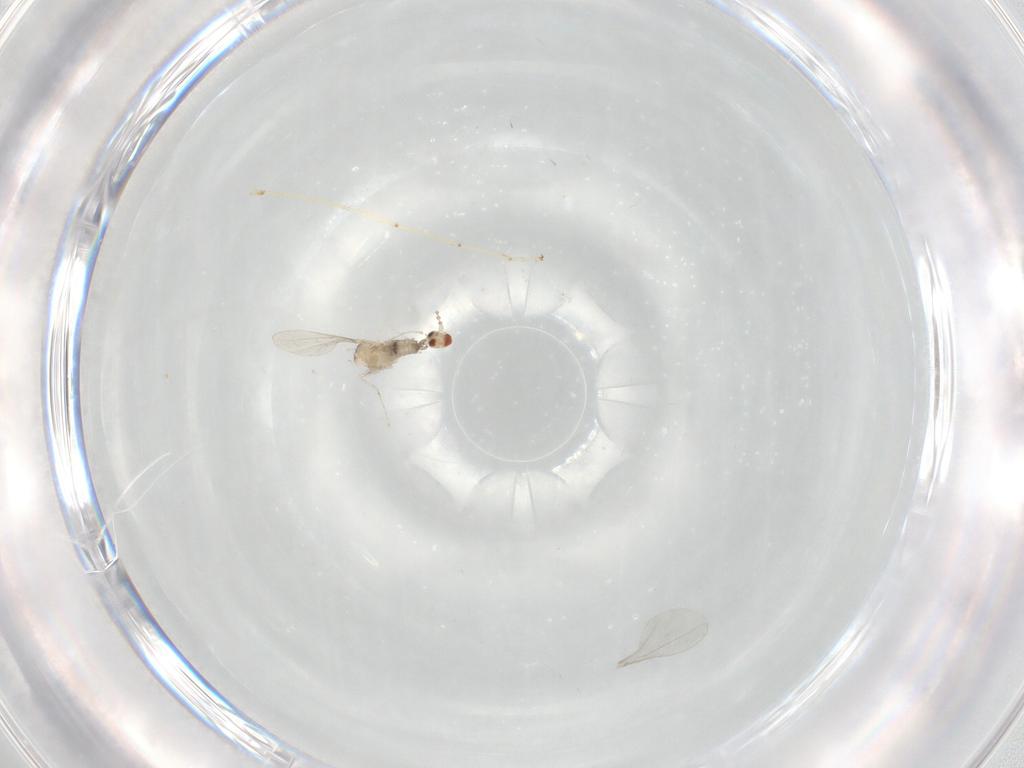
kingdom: Animalia
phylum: Arthropoda
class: Insecta
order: Diptera
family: Cecidomyiidae
